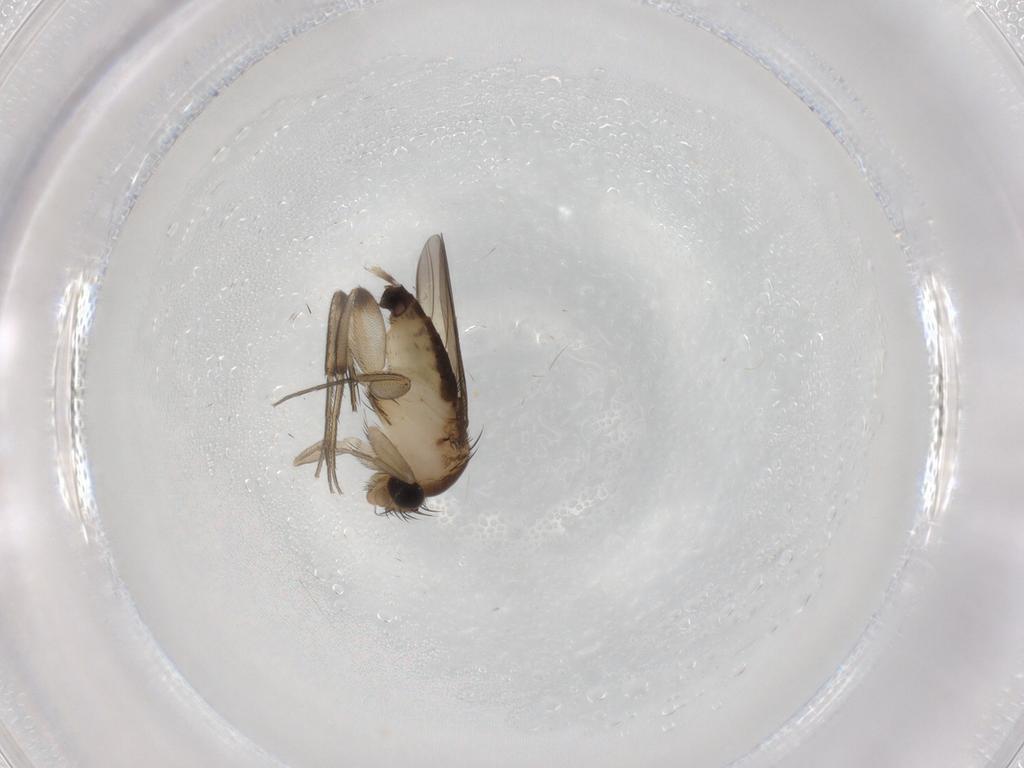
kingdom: Animalia
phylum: Arthropoda
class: Insecta
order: Diptera
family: Phoridae
